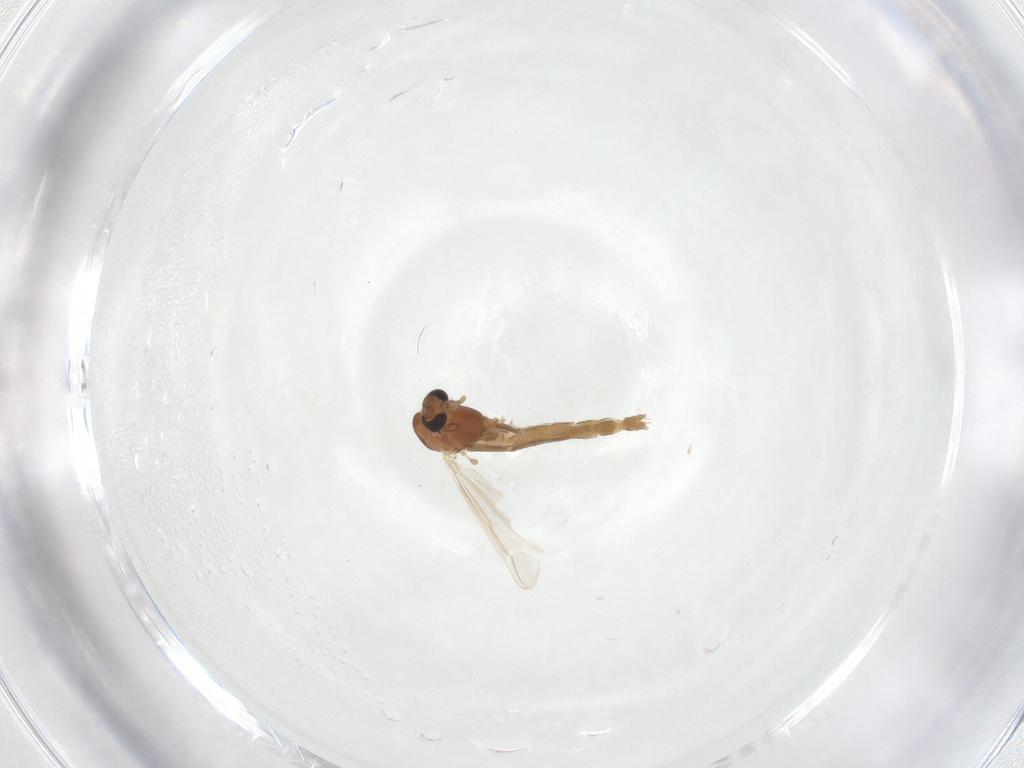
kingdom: Animalia
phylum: Arthropoda
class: Insecta
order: Diptera
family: Chironomidae
